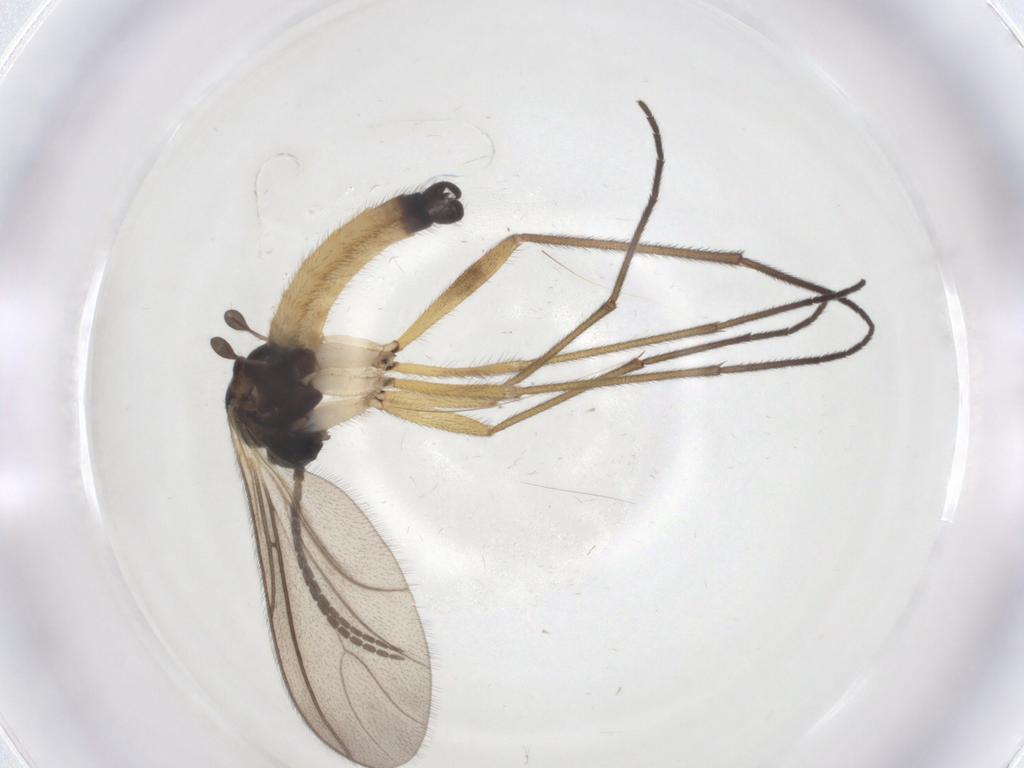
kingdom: Animalia
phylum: Arthropoda
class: Insecta
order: Diptera
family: Sciaridae
